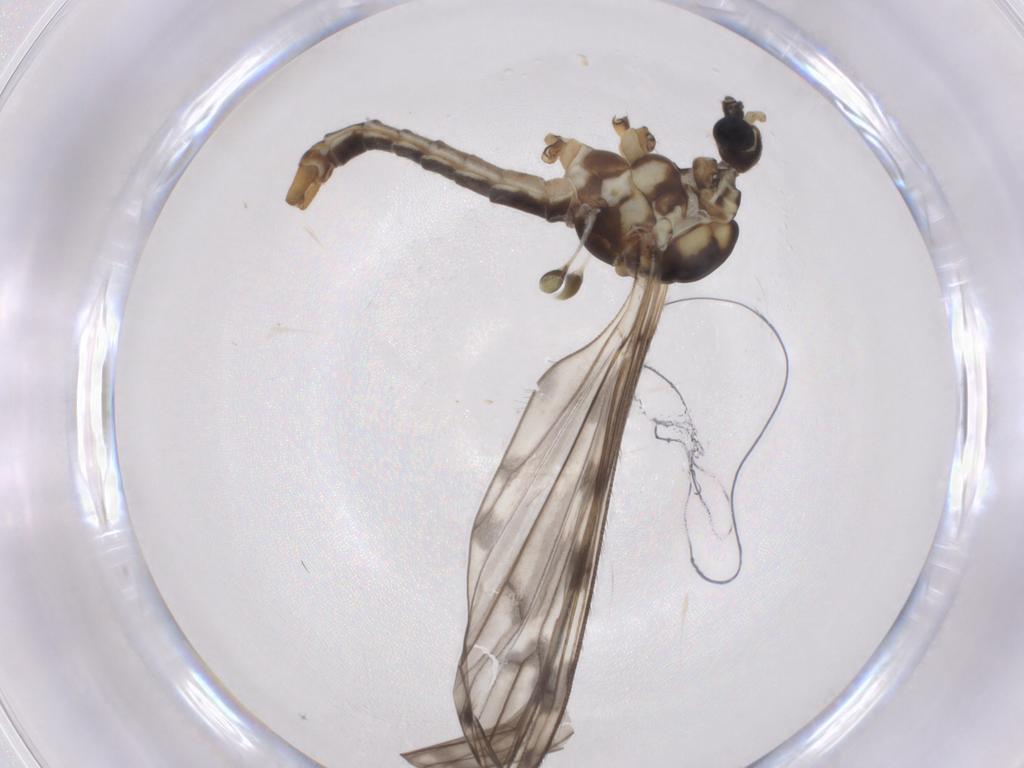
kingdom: Animalia
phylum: Arthropoda
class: Insecta
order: Diptera
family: Limoniidae
